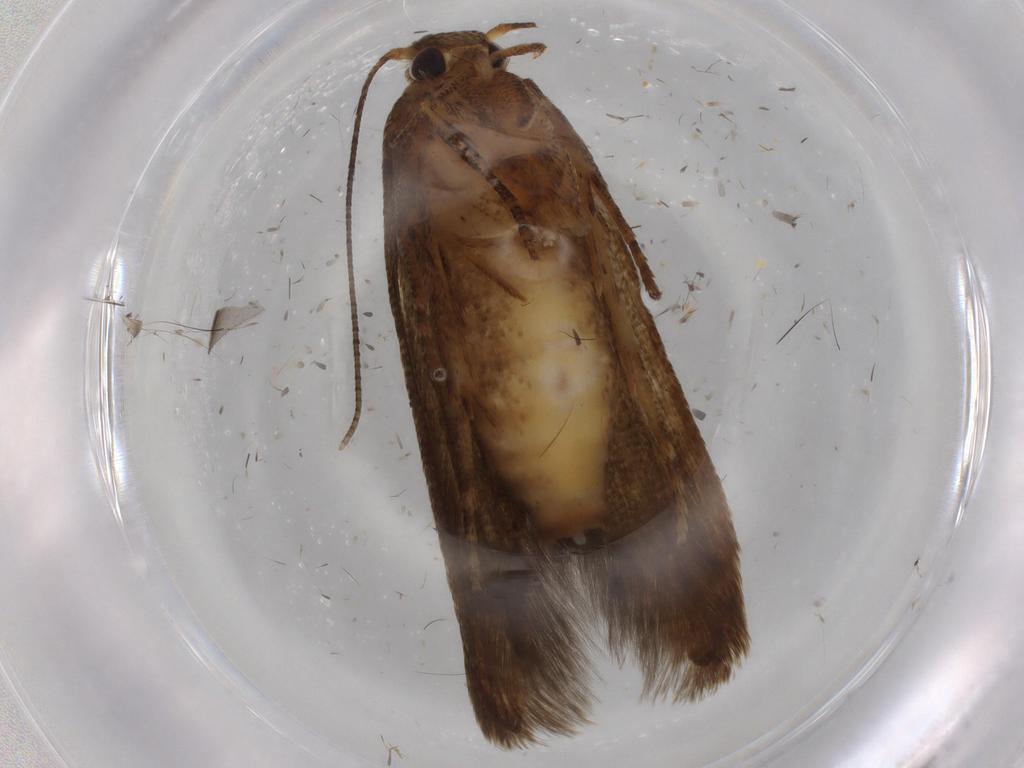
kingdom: Animalia
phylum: Arthropoda
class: Insecta
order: Lepidoptera
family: Blastobasidae
